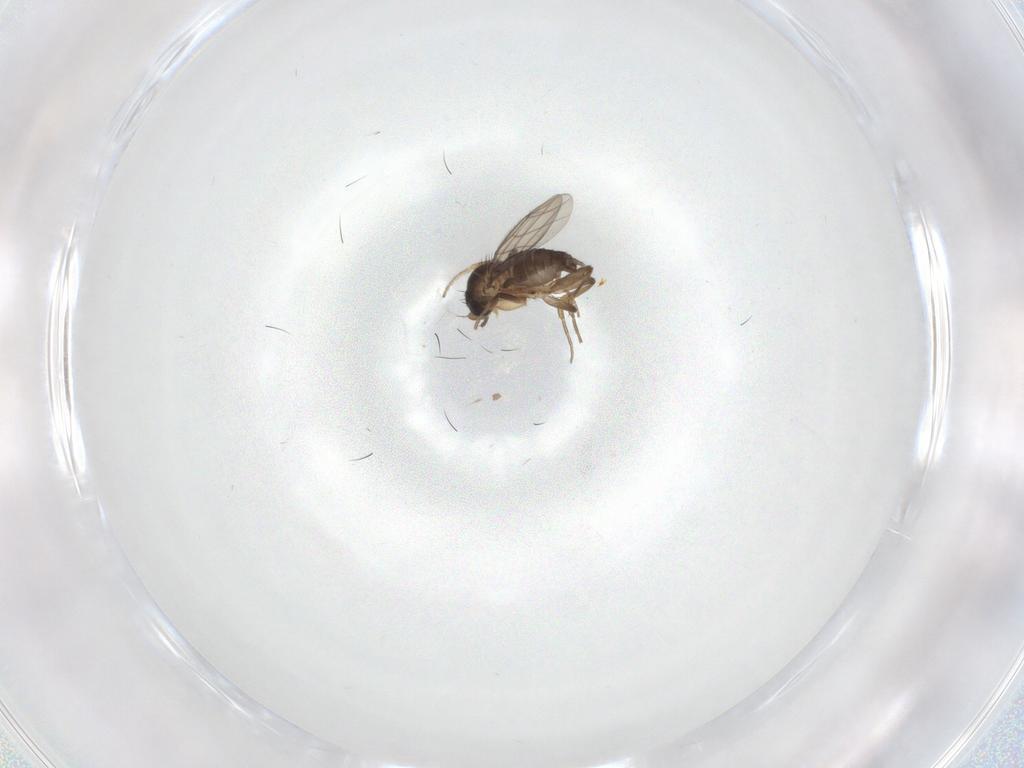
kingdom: Animalia
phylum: Arthropoda
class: Insecta
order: Diptera
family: Phoridae
